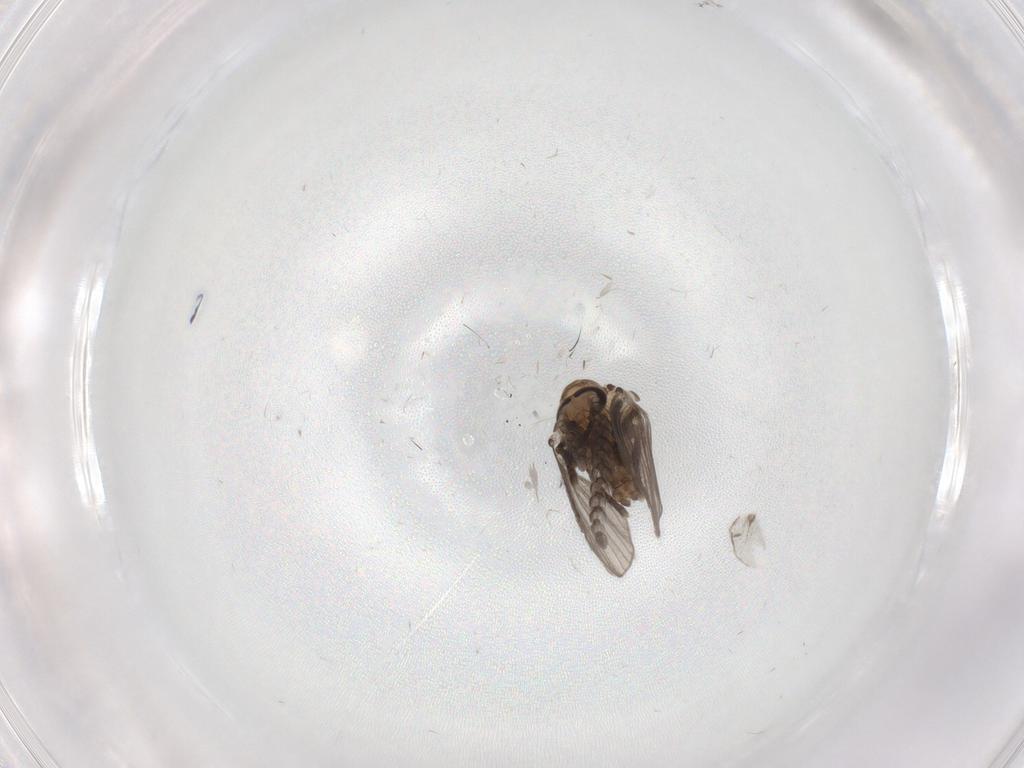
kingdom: Animalia
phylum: Arthropoda
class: Insecta
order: Diptera
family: Psychodidae
